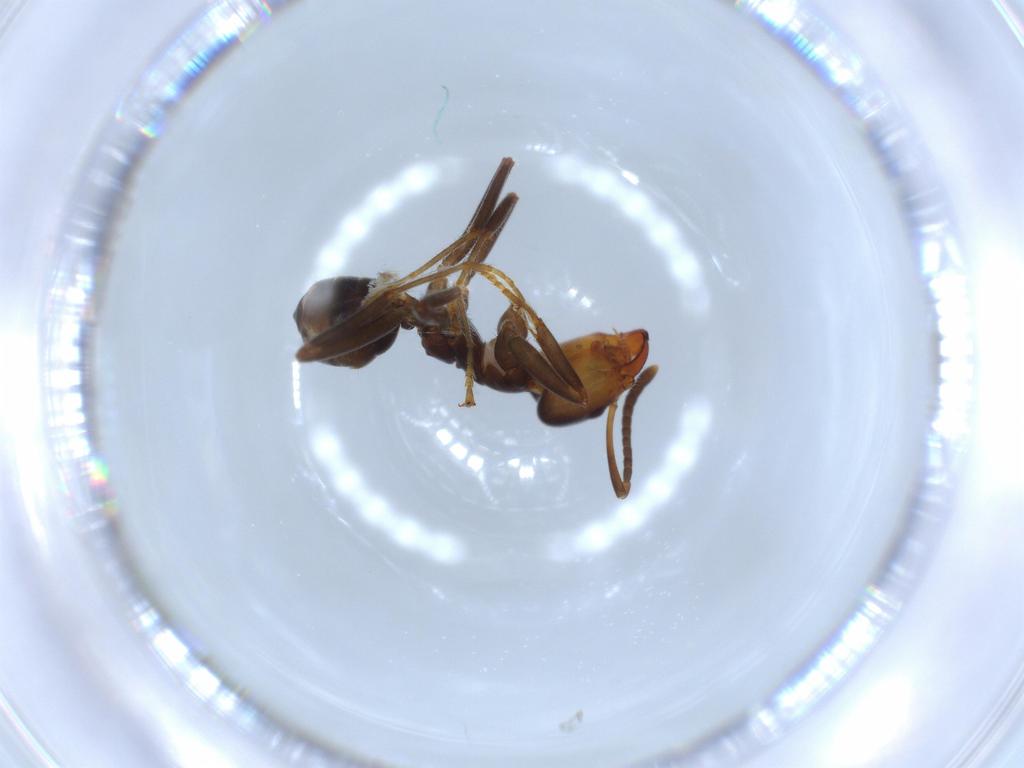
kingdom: Animalia
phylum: Arthropoda
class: Insecta
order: Hymenoptera
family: Formicidae
